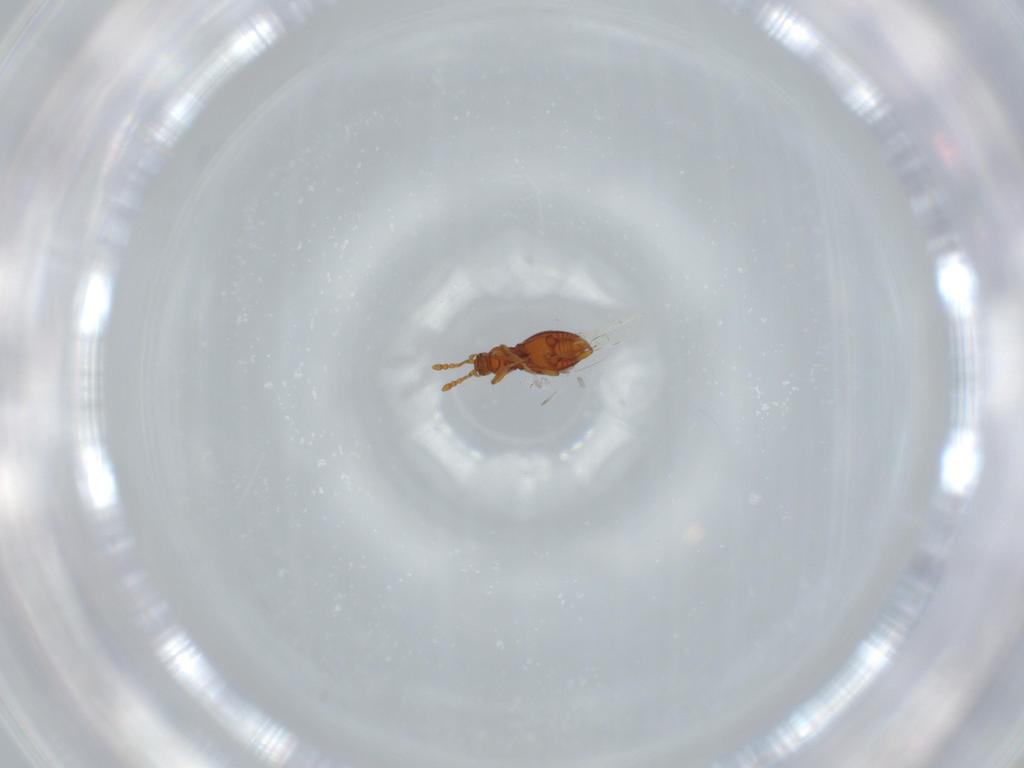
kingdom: Animalia
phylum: Arthropoda
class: Insecta
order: Coleoptera
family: Staphylinidae
